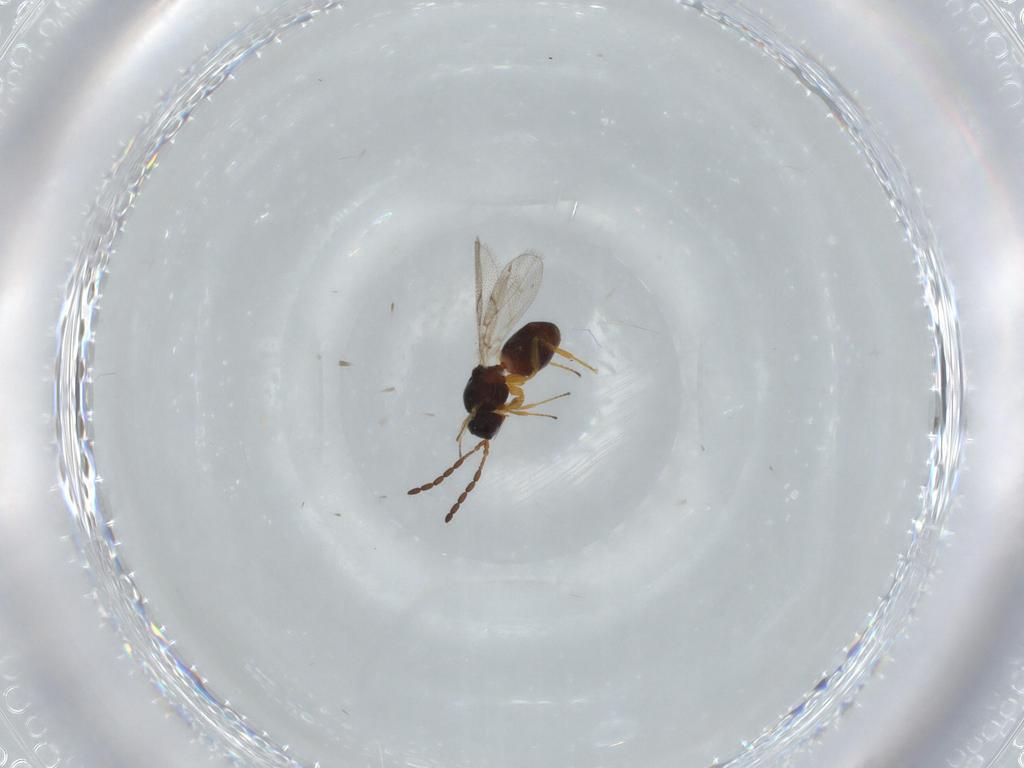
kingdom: Animalia
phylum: Arthropoda
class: Insecta
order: Hymenoptera
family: Figitidae
